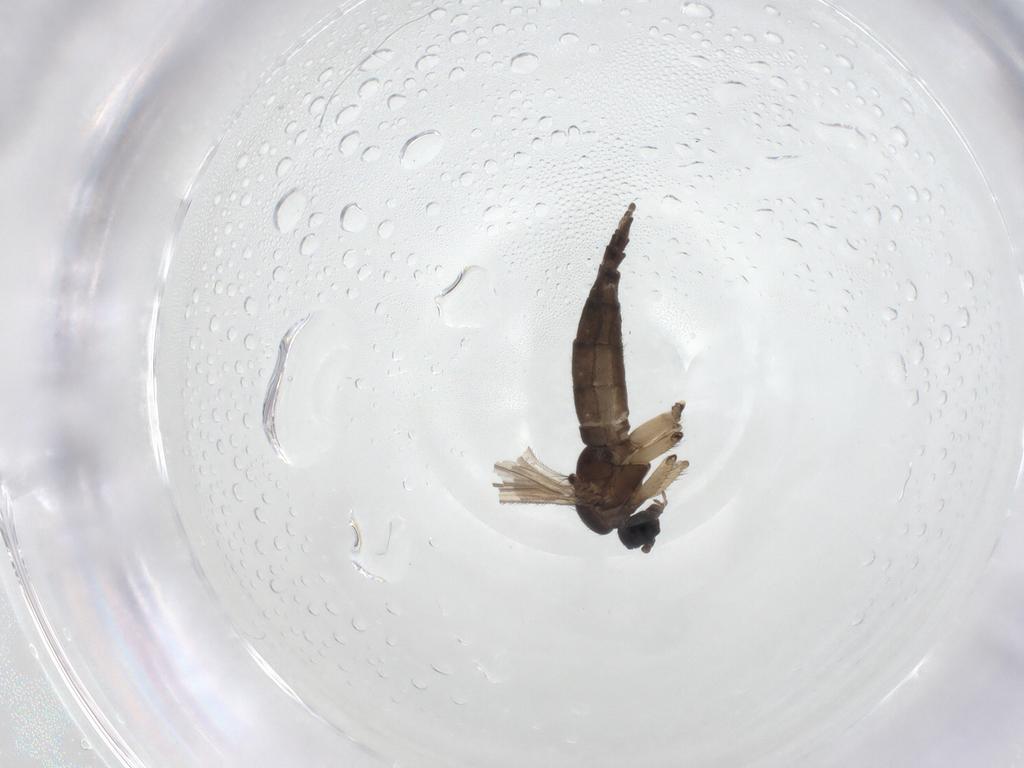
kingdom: Animalia
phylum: Arthropoda
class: Insecta
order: Diptera
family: Sciaridae
